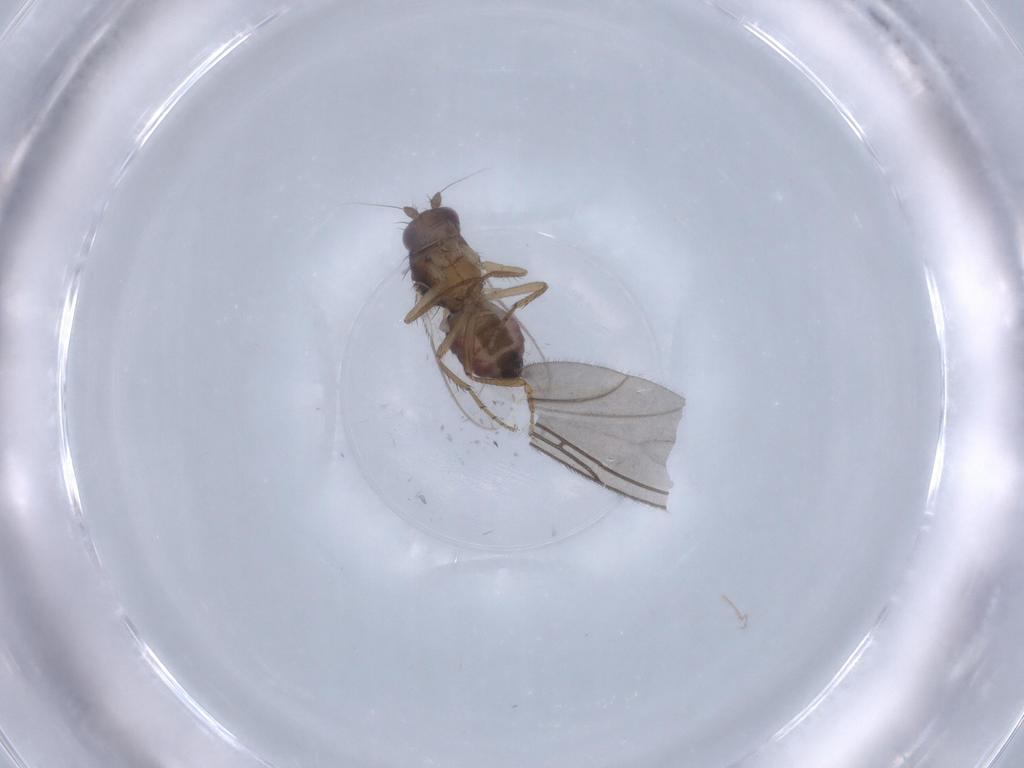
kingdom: Animalia
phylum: Arthropoda
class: Insecta
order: Diptera
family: Sphaeroceridae
